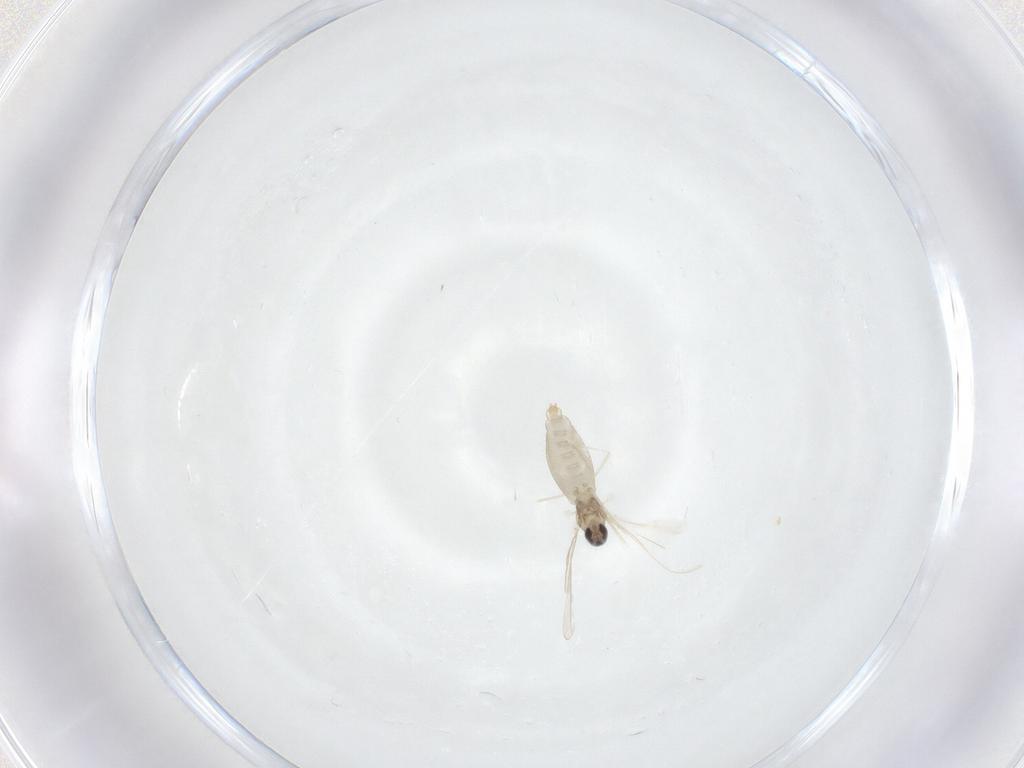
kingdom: Animalia
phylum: Arthropoda
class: Insecta
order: Diptera
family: Cecidomyiidae
